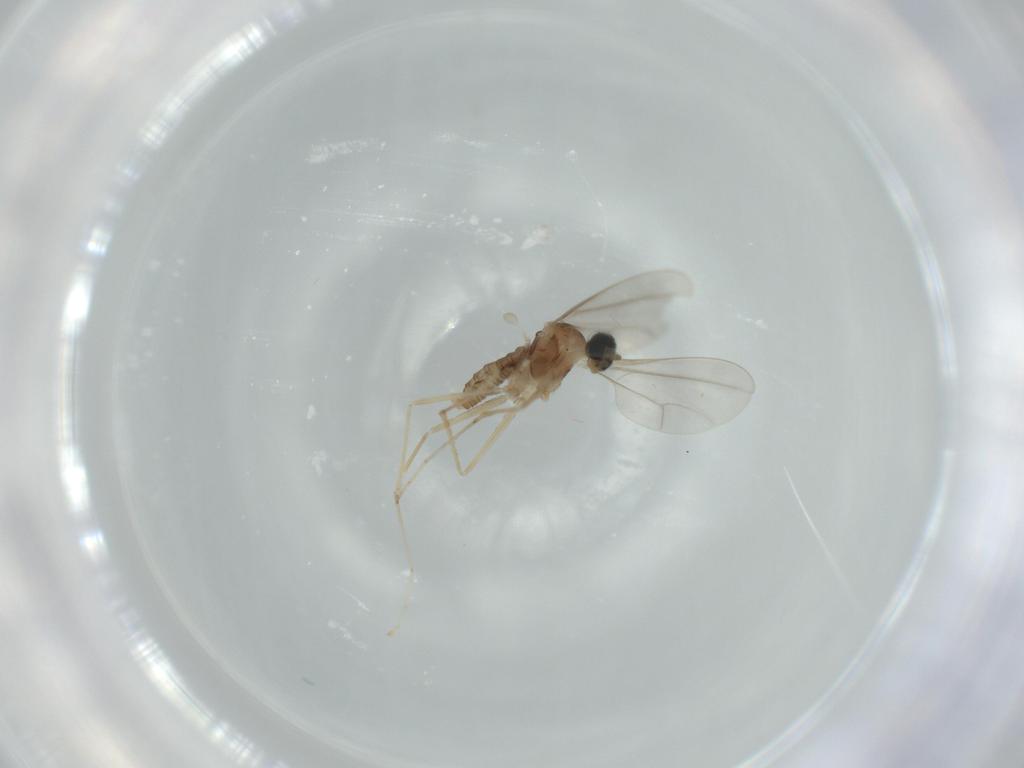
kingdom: Animalia
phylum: Arthropoda
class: Insecta
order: Diptera
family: Cecidomyiidae
